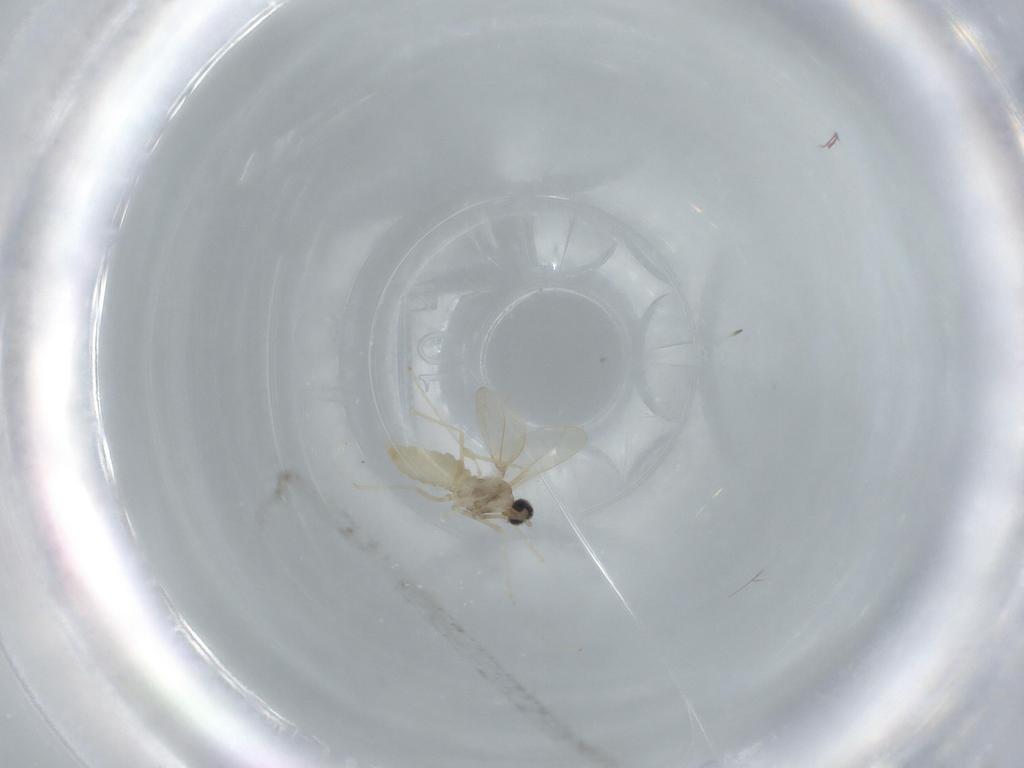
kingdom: Animalia
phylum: Arthropoda
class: Insecta
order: Diptera
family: Cecidomyiidae
